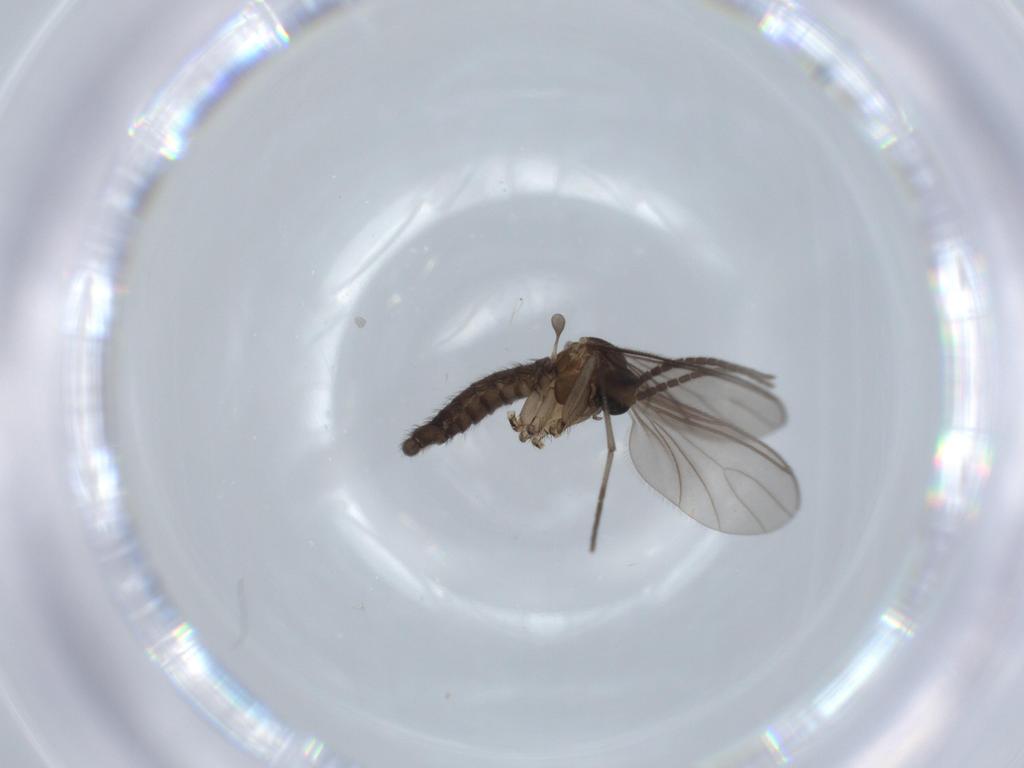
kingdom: Animalia
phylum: Arthropoda
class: Insecta
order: Diptera
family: Sciaridae
